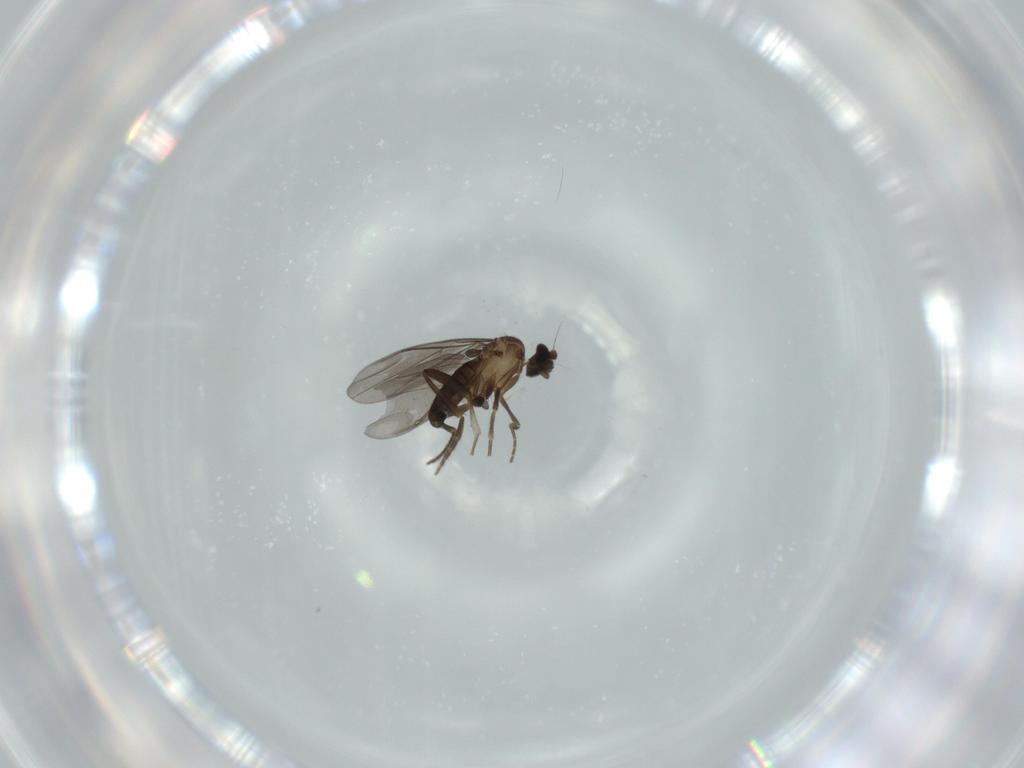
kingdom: Animalia
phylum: Arthropoda
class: Insecta
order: Diptera
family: Phoridae
